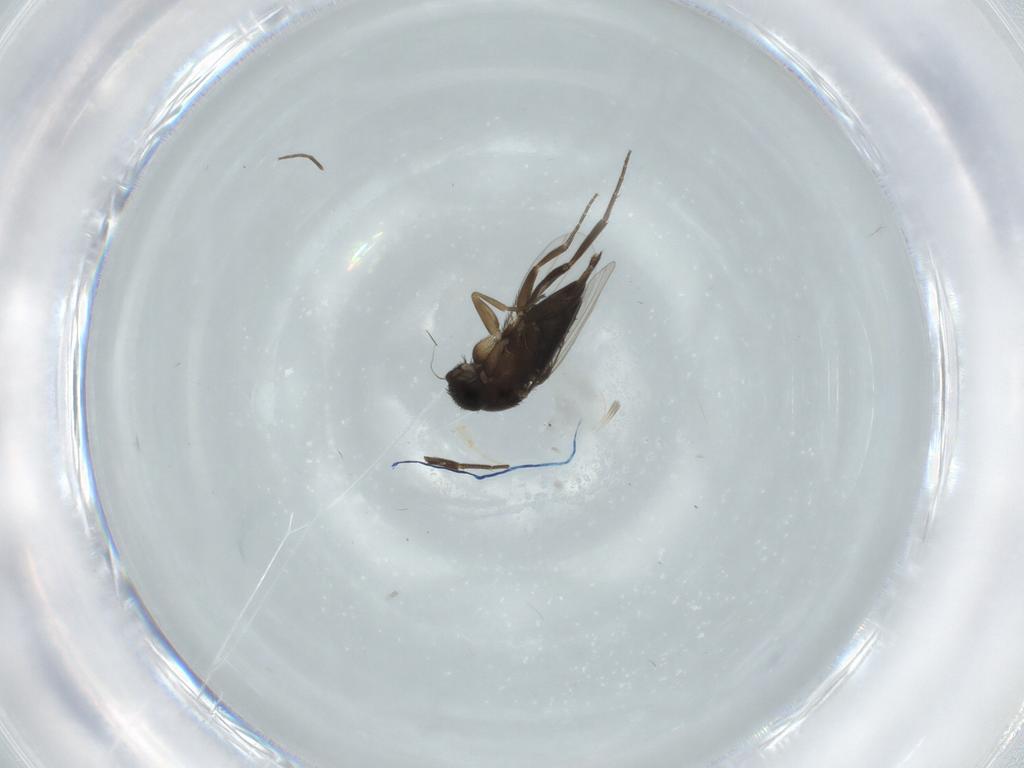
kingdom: Animalia
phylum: Arthropoda
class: Insecta
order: Diptera
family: Phoridae
